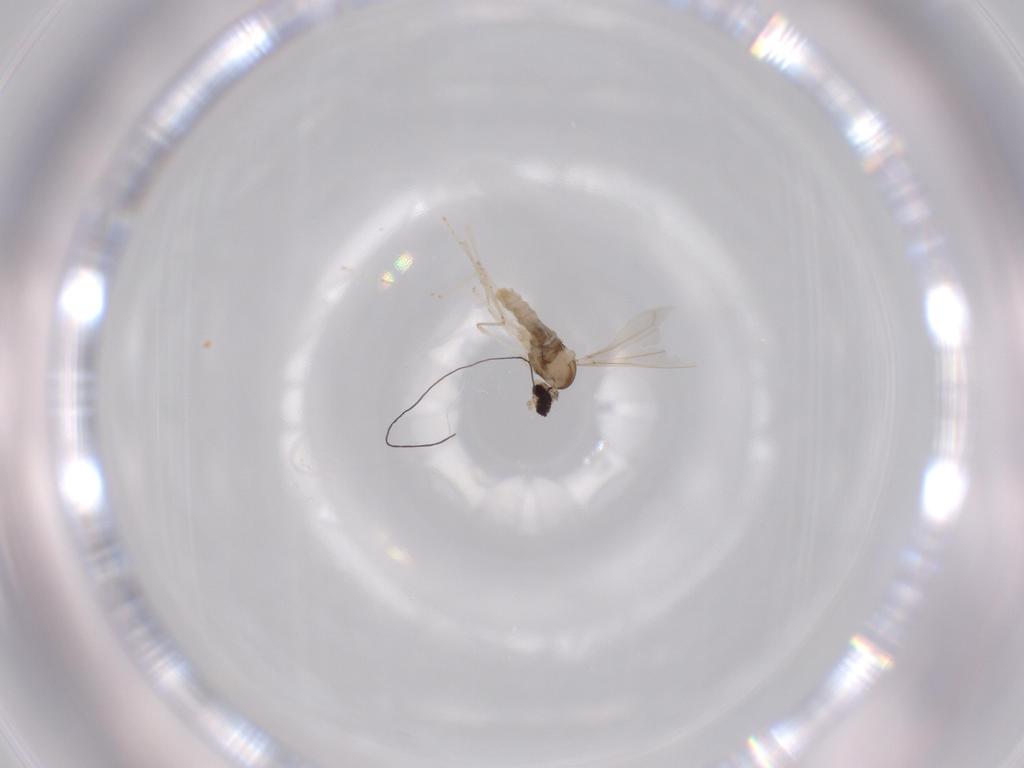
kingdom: Animalia
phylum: Arthropoda
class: Insecta
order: Diptera
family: Cecidomyiidae
